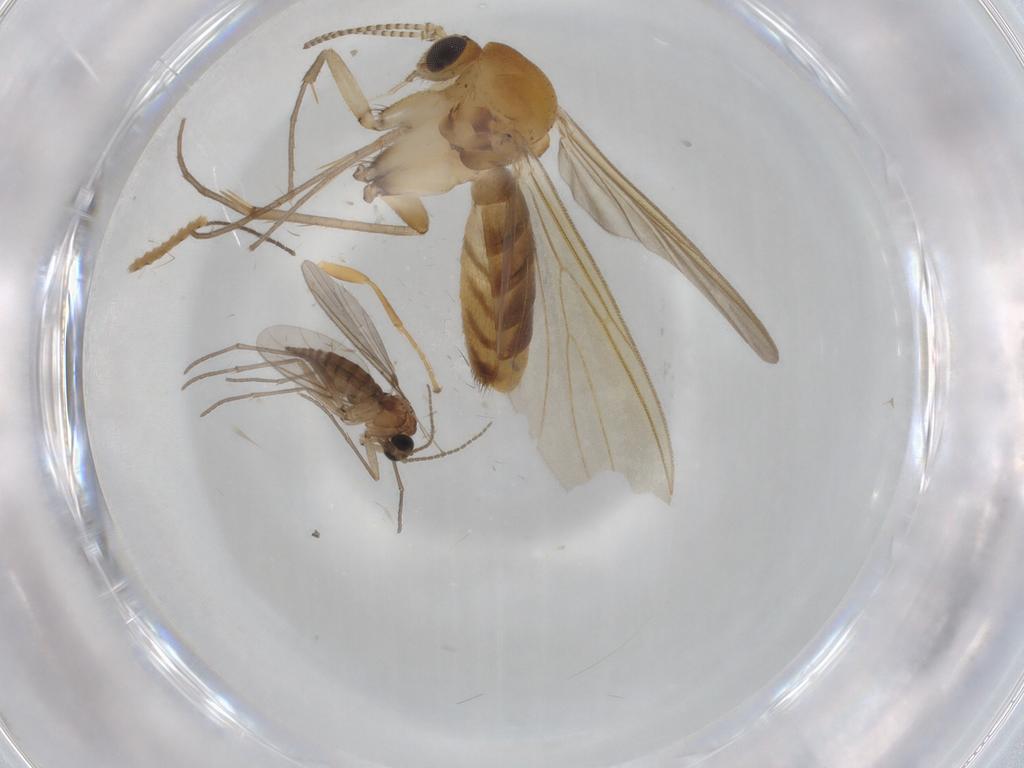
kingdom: Animalia
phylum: Arthropoda
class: Insecta
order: Diptera
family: Mycetophilidae
